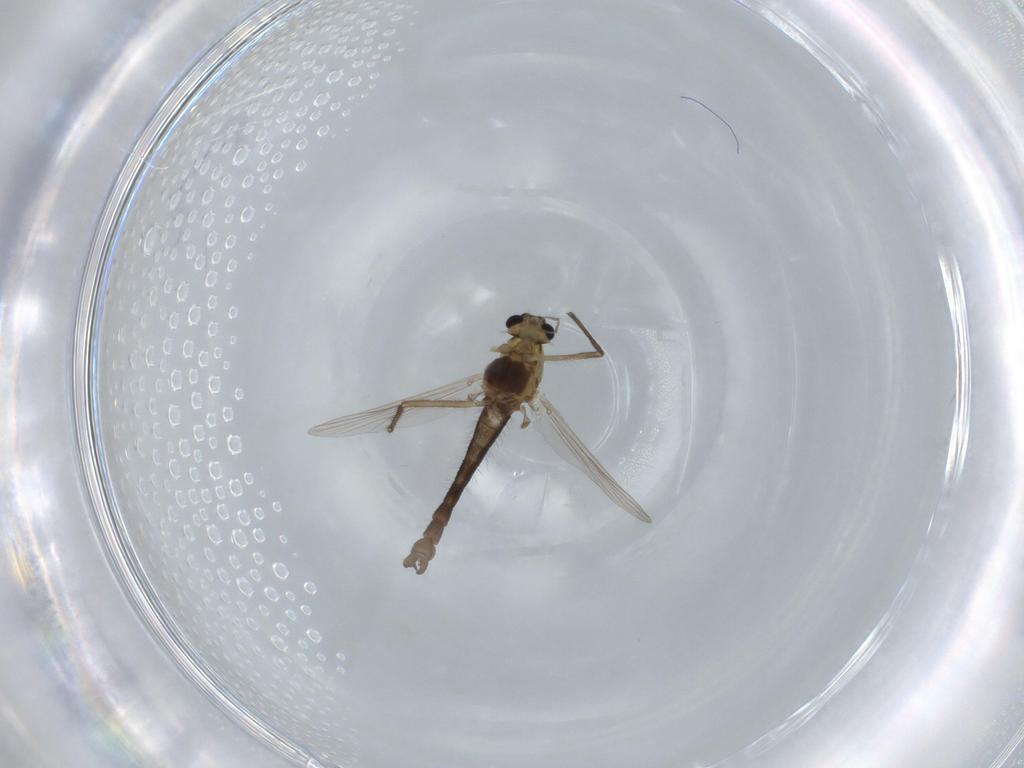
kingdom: Animalia
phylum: Arthropoda
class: Insecta
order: Diptera
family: Chironomidae
